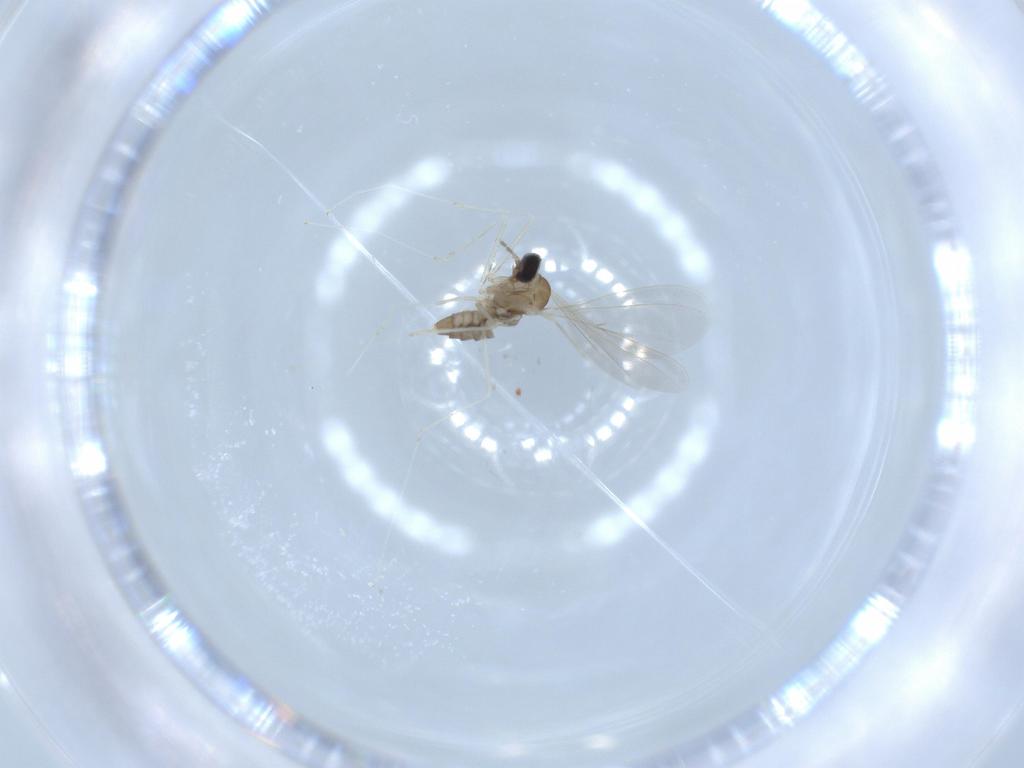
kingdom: Animalia
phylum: Arthropoda
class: Insecta
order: Diptera
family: Cecidomyiidae
